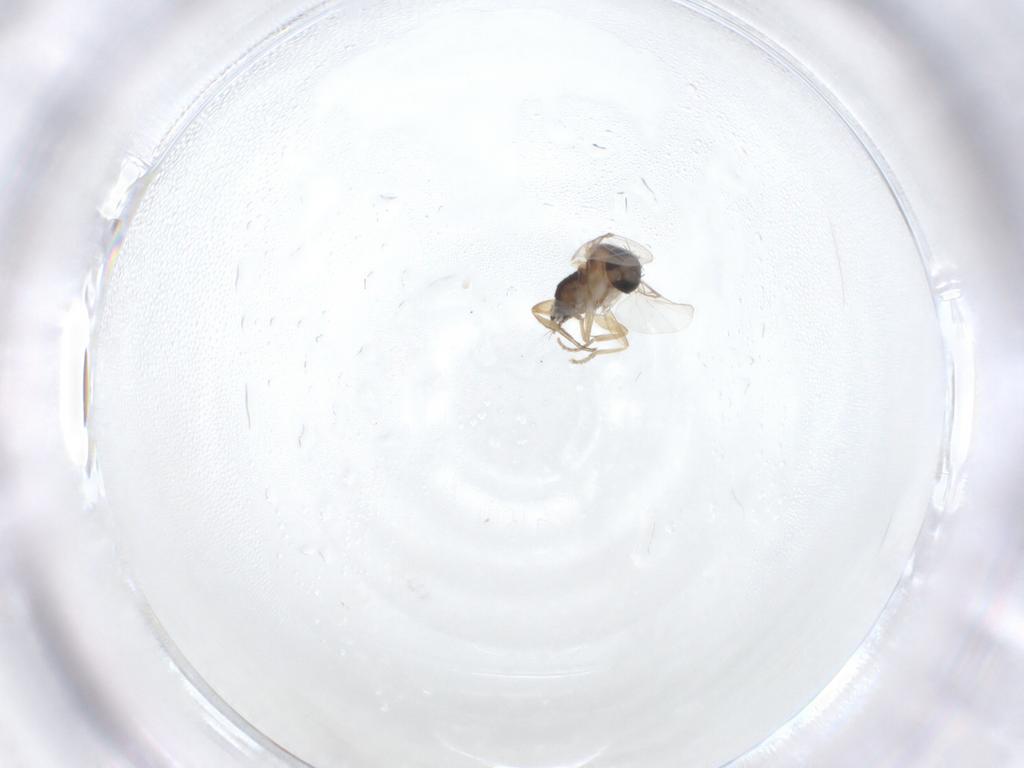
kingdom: Animalia
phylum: Arthropoda
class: Insecta
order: Diptera
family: Phoridae
